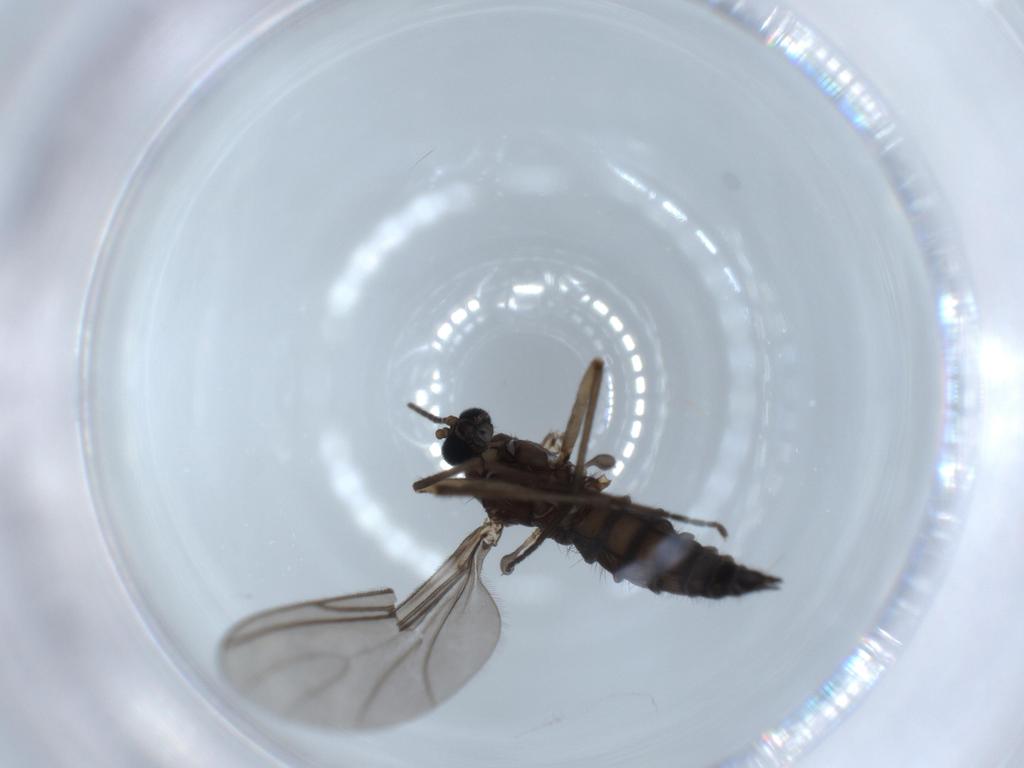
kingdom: Animalia
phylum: Arthropoda
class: Insecta
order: Diptera
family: Sciaridae
